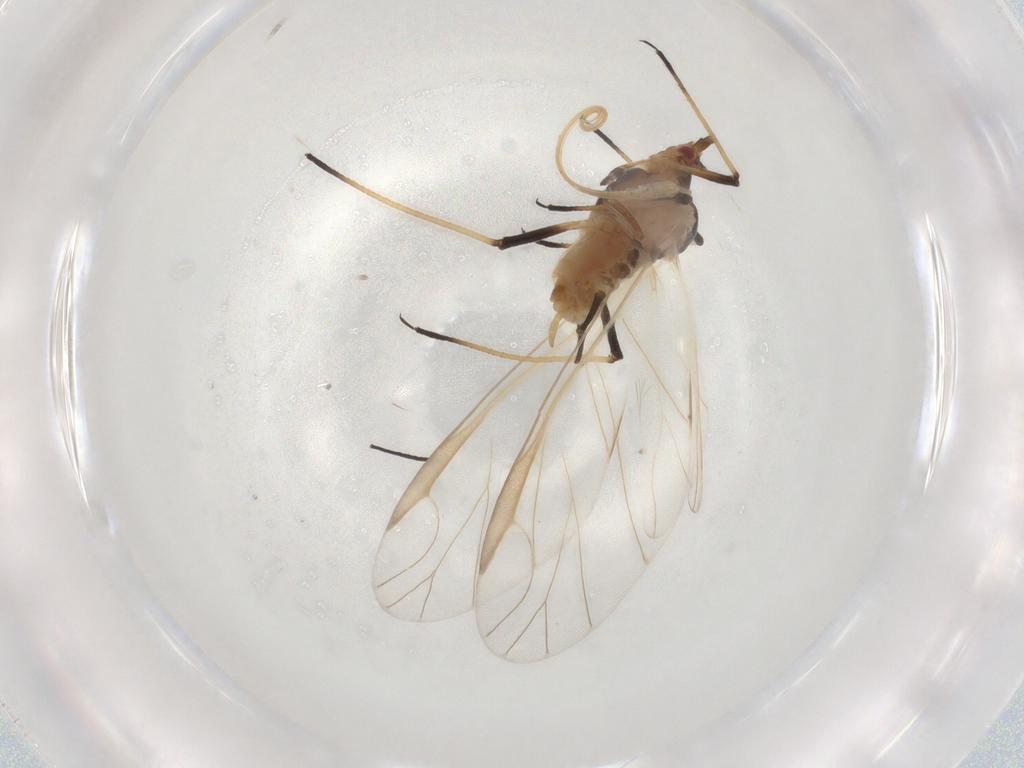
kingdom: Animalia
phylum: Arthropoda
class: Insecta
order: Hemiptera
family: Aphididae
